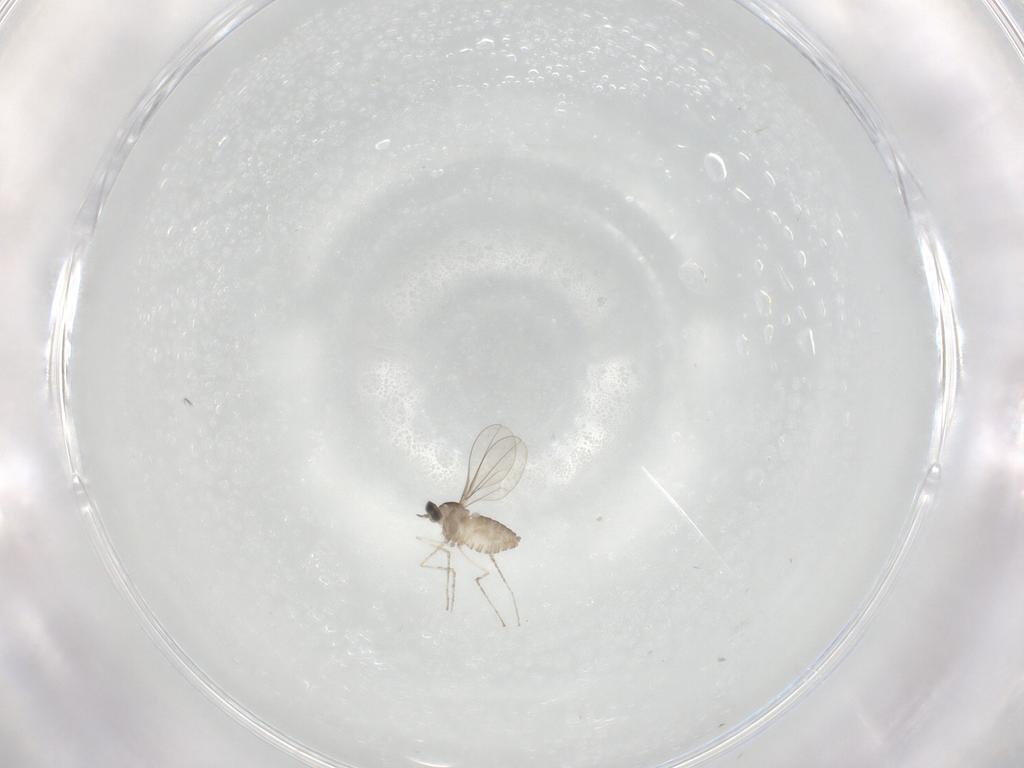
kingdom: Animalia
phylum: Arthropoda
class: Insecta
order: Diptera
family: Cecidomyiidae
